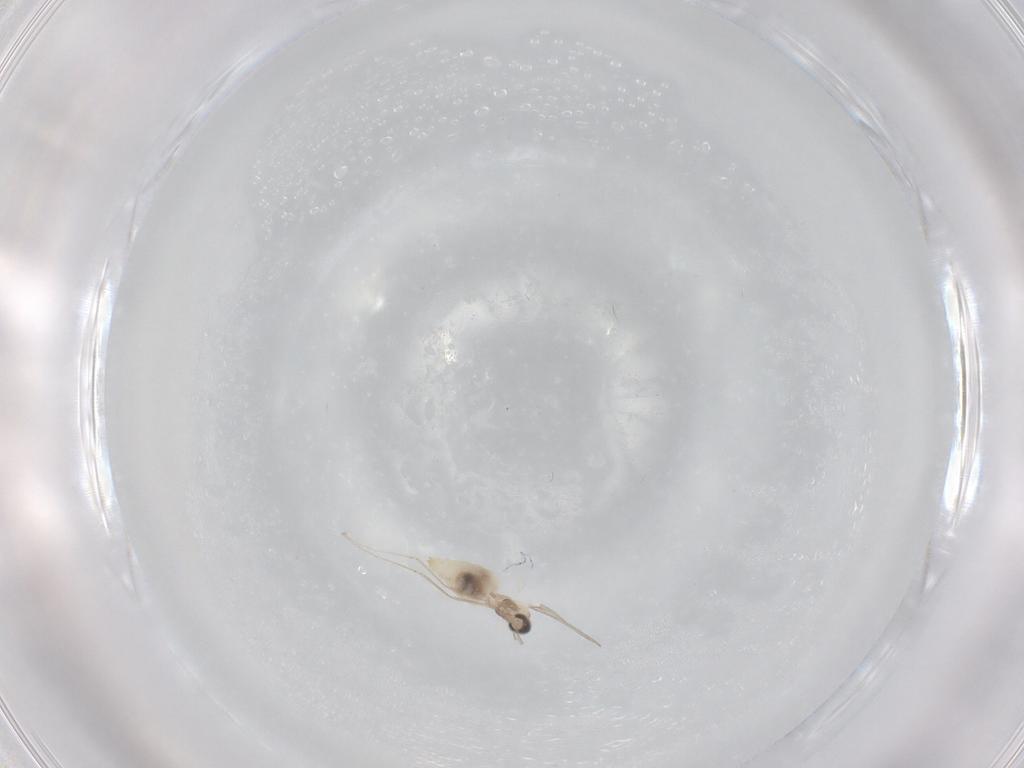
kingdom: Animalia
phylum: Arthropoda
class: Insecta
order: Diptera
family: Cecidomyiidae
